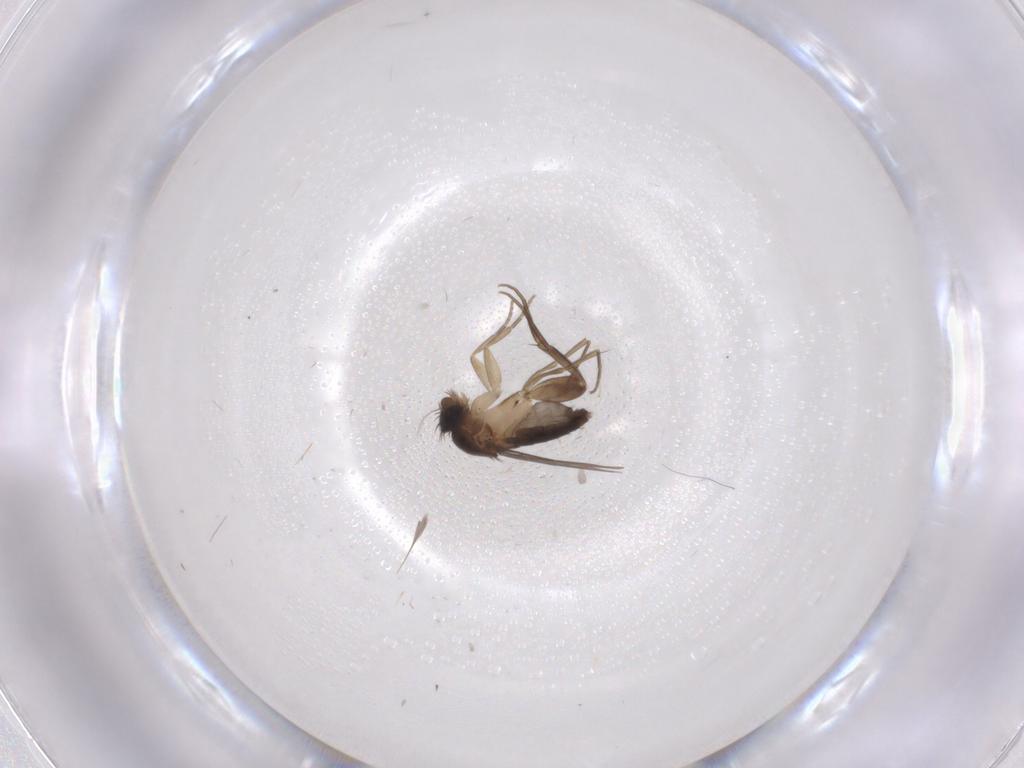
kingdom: Animalia
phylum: Arthropoda
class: Insecta
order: Diptera
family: Phoridae
